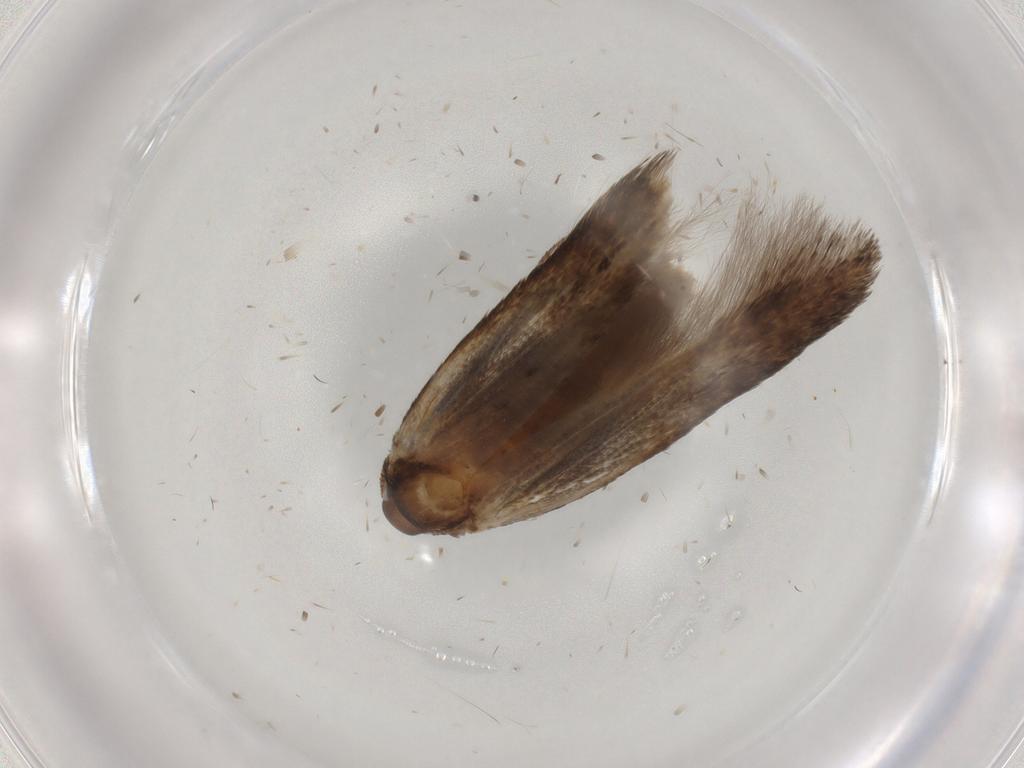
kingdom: Animalia
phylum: Arthropoda
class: Insecta
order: Lepidoptera
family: Cosmopterigidae
